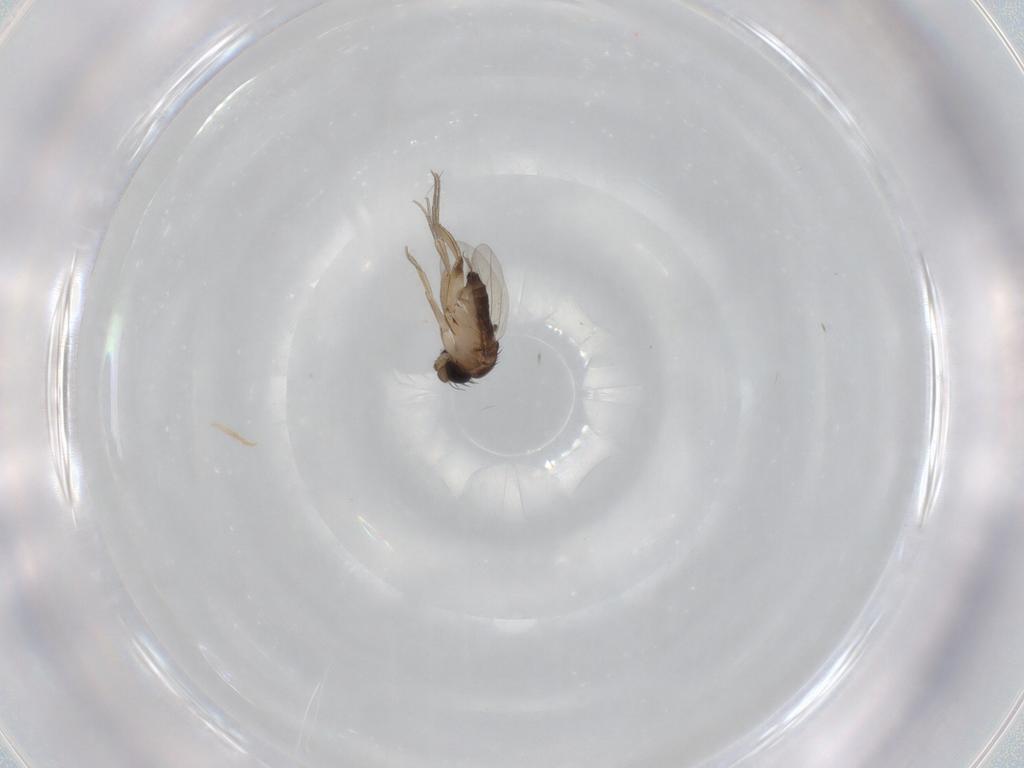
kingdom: Animalia
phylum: Arthropoda
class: Insecta
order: Diptera
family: Phoridae
